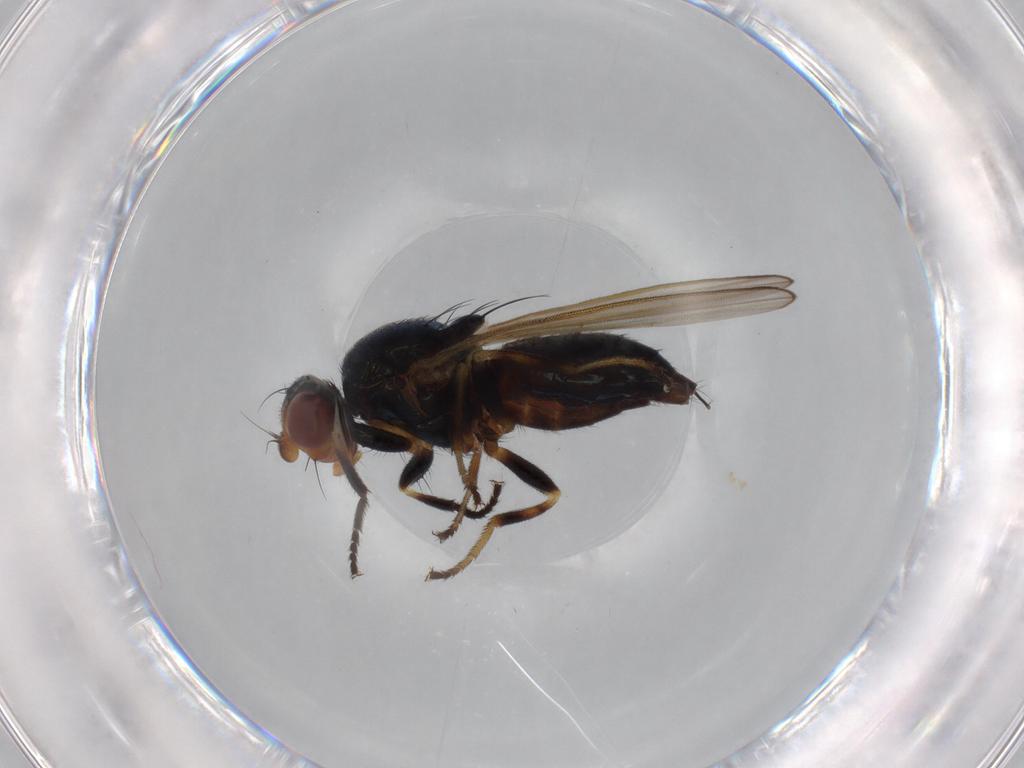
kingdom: Animalia
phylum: Arthropoda
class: Insecta
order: Diptera
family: Piophilidae
